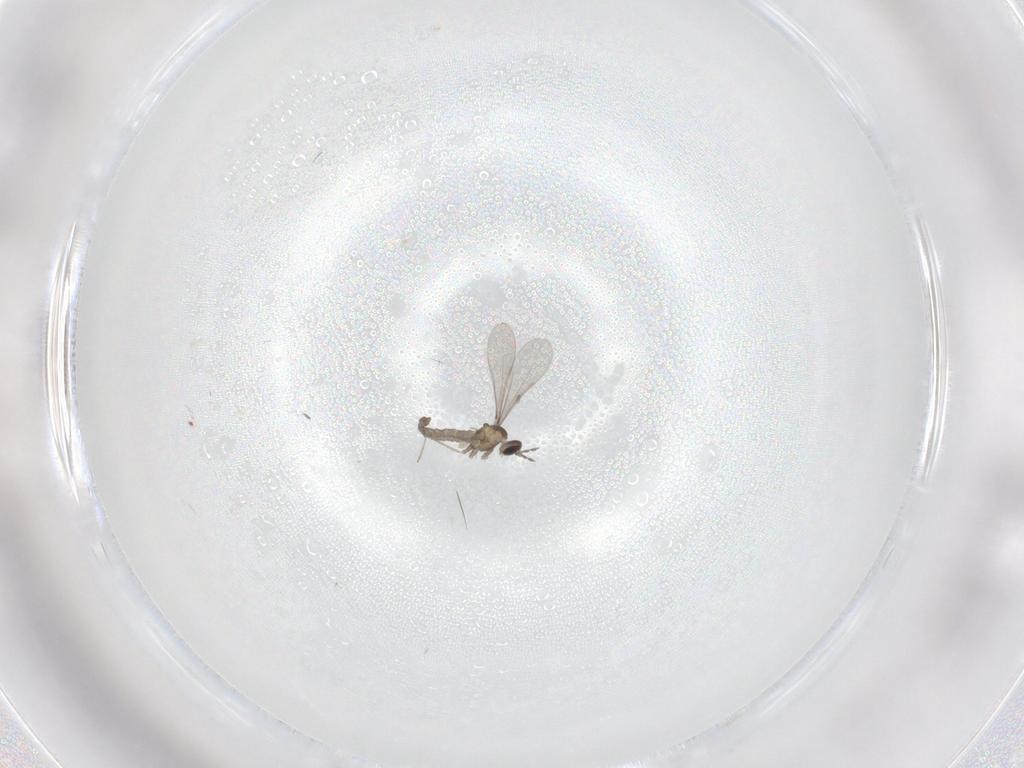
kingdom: Animalia
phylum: Arthropoda
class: Insecta
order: Diptera
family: Cecidomyiidae
